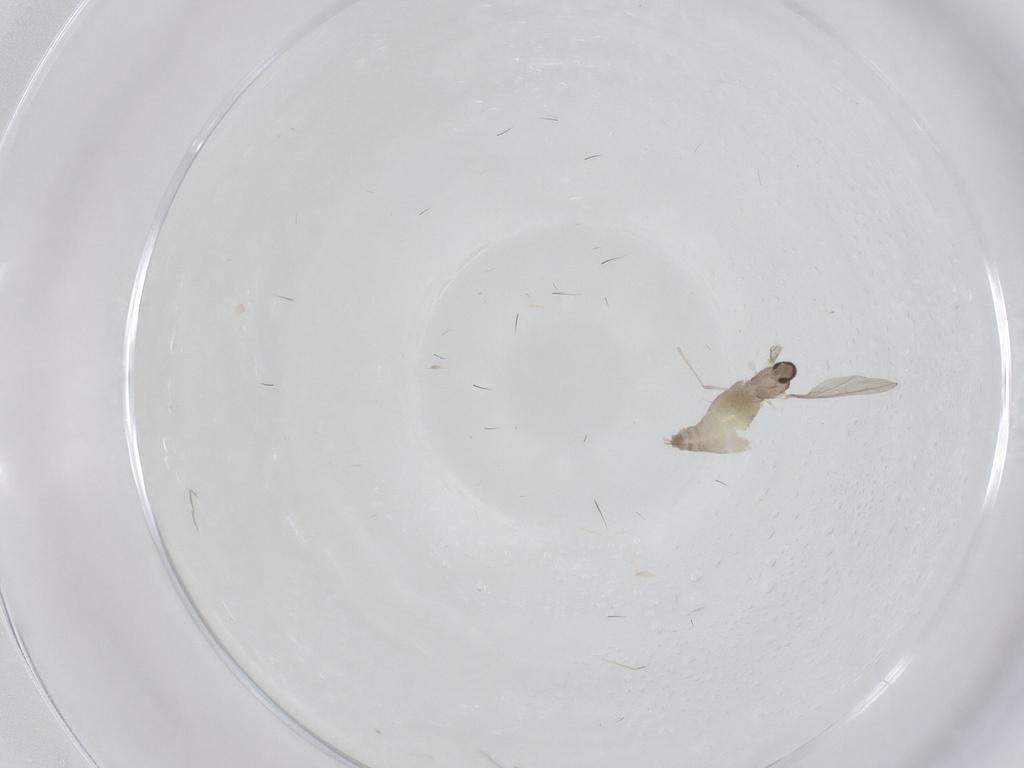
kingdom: Animalia
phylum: Arthropoda
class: Insecta
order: Diptera
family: Cecidomyiidae
